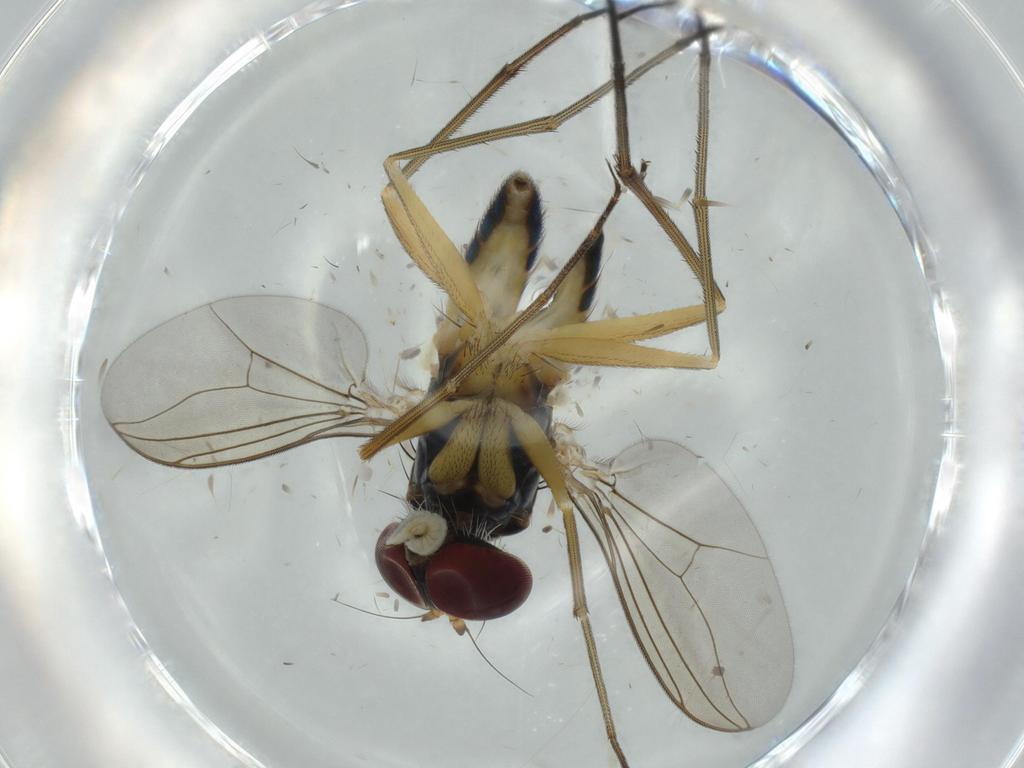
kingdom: Animalia
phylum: Arthropoda
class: Insecta
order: Diptera
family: Dolichopodidae
